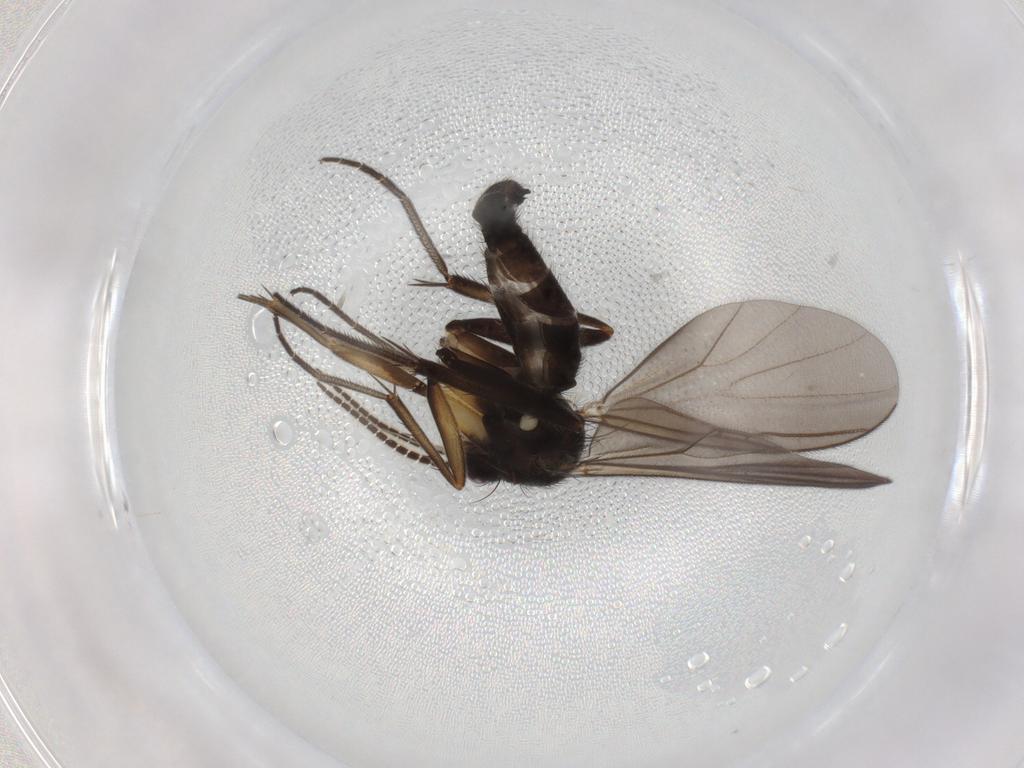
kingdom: Animalia
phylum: Arthropoda
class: Insecta
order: Diptera
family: Mycetophilidae
